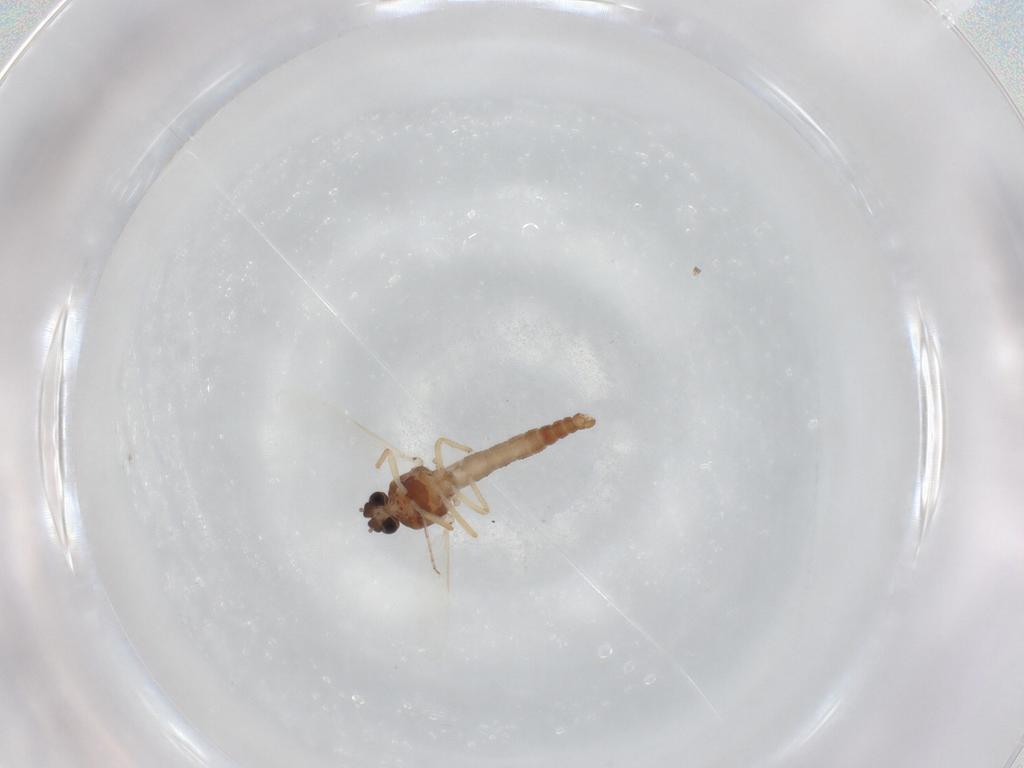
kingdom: Animalia
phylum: Arthropoda
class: Insecta
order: Diptera
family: Ceratopogonidae
